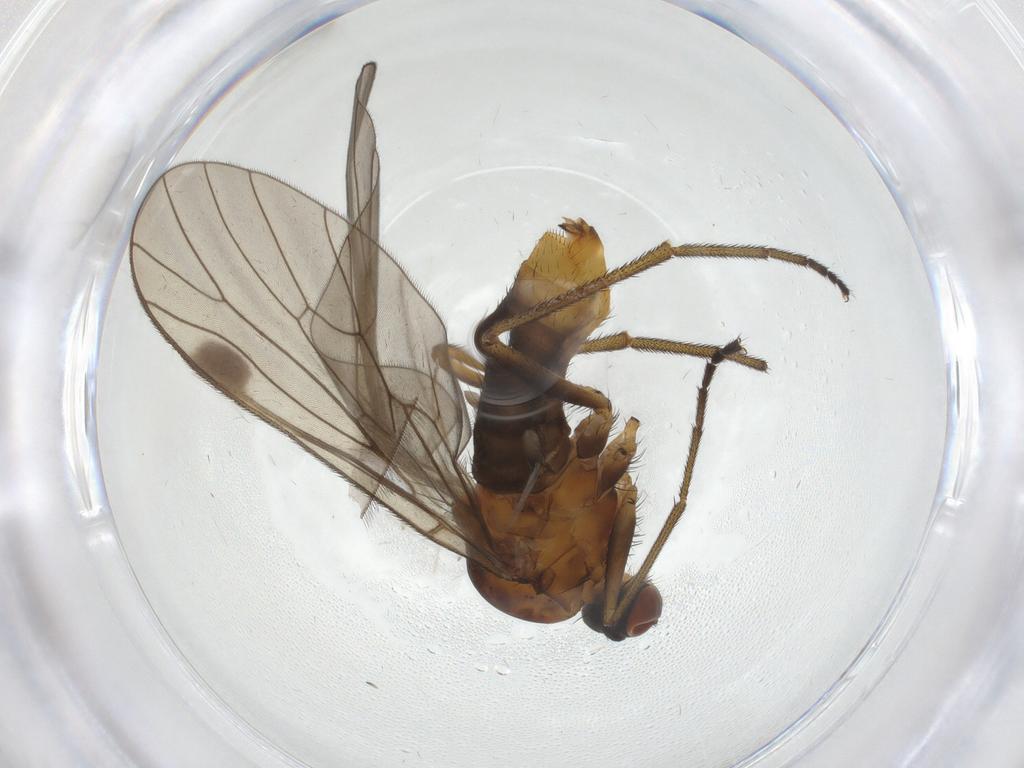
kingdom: Animalia
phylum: Arthropoda
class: Insecta
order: Diptera
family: Empididae
